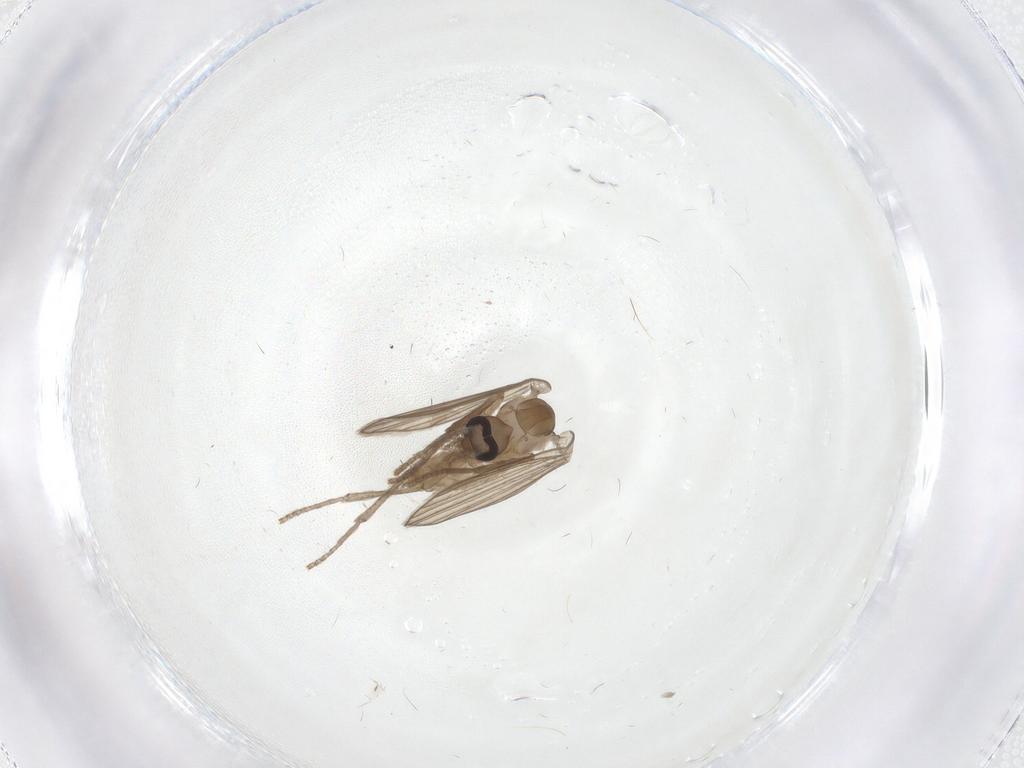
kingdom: Animalia
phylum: Arthropoda
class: Insecta
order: Diptera
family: Psychodidae
